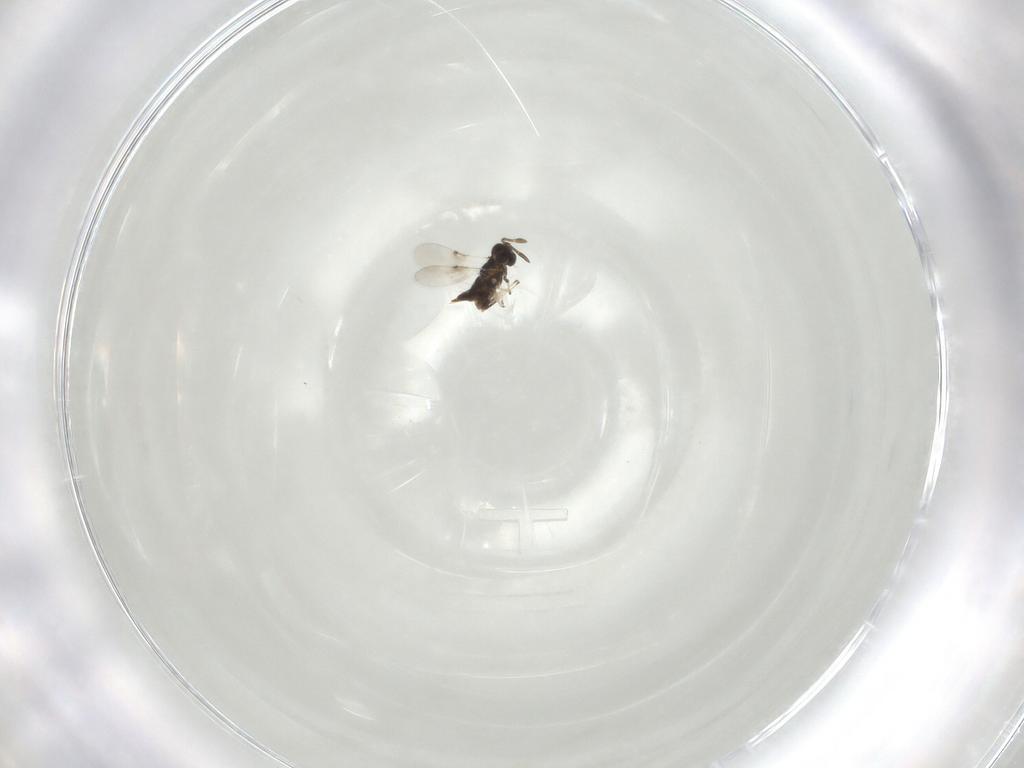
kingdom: Animalia
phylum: Arthropoda
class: Insecta
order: Hymenoptera
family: Encyrtidae
